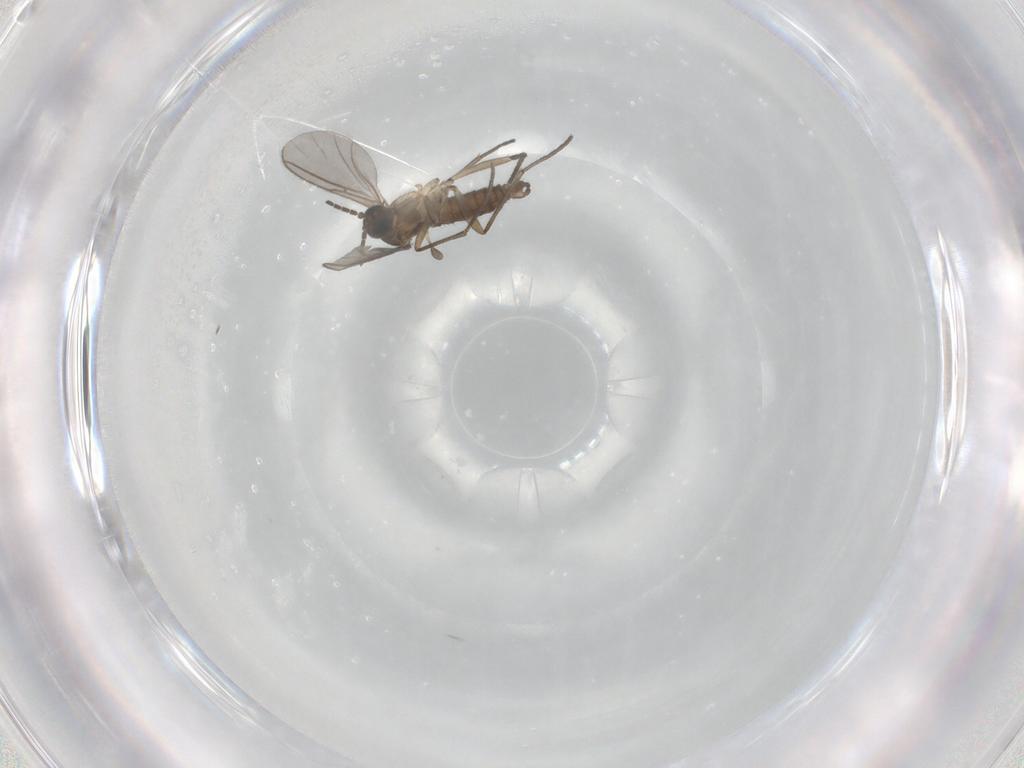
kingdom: Animalia
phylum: Arthropoda
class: Insecta
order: Diptera
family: Sciaridae
